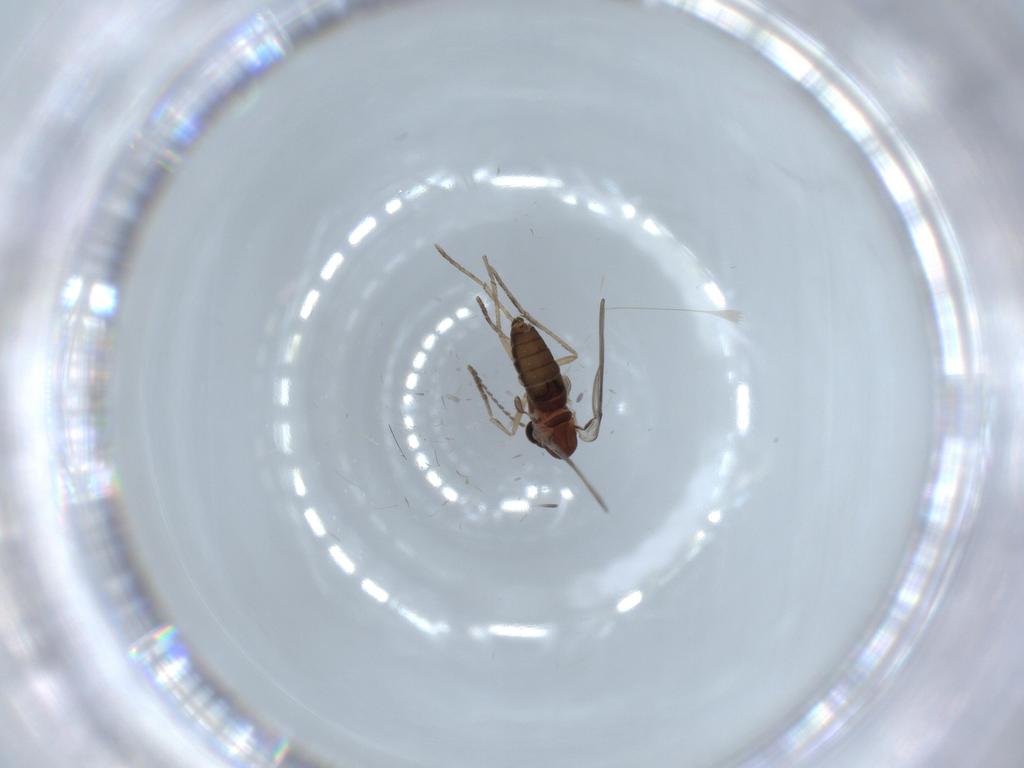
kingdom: Animalia
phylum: Arthropoda
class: Insecta
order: Diptera
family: Psychodidae
